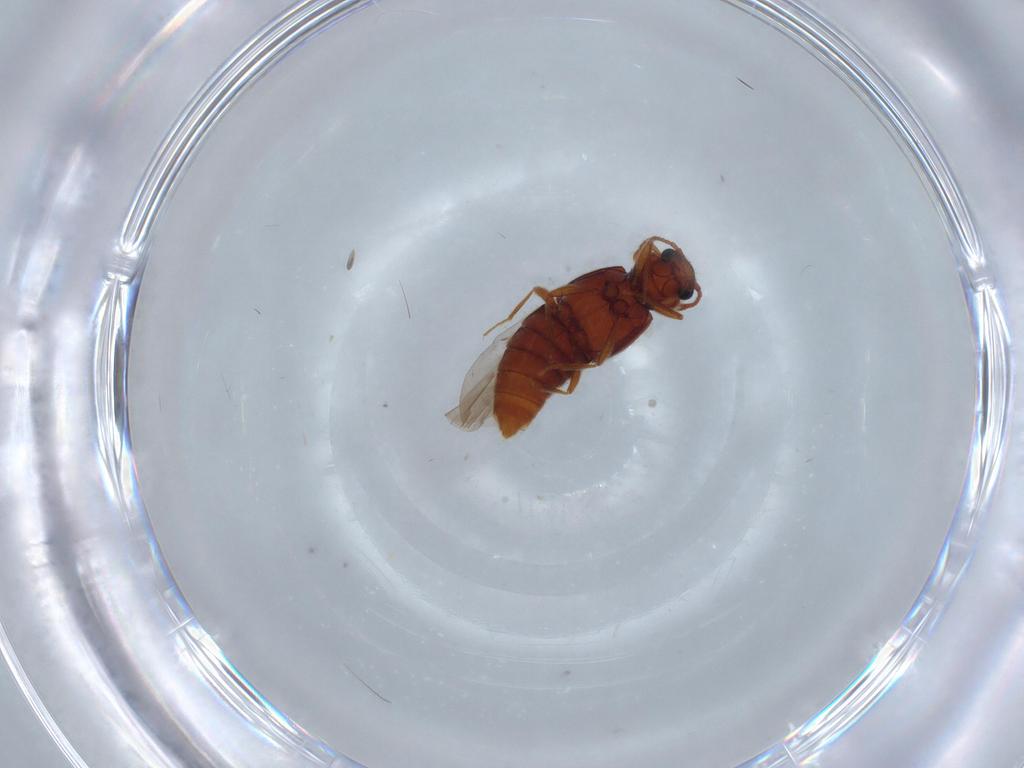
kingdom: Animalia
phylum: Arthropoda
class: Insecta
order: Coleoptera
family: Staphylinidae
